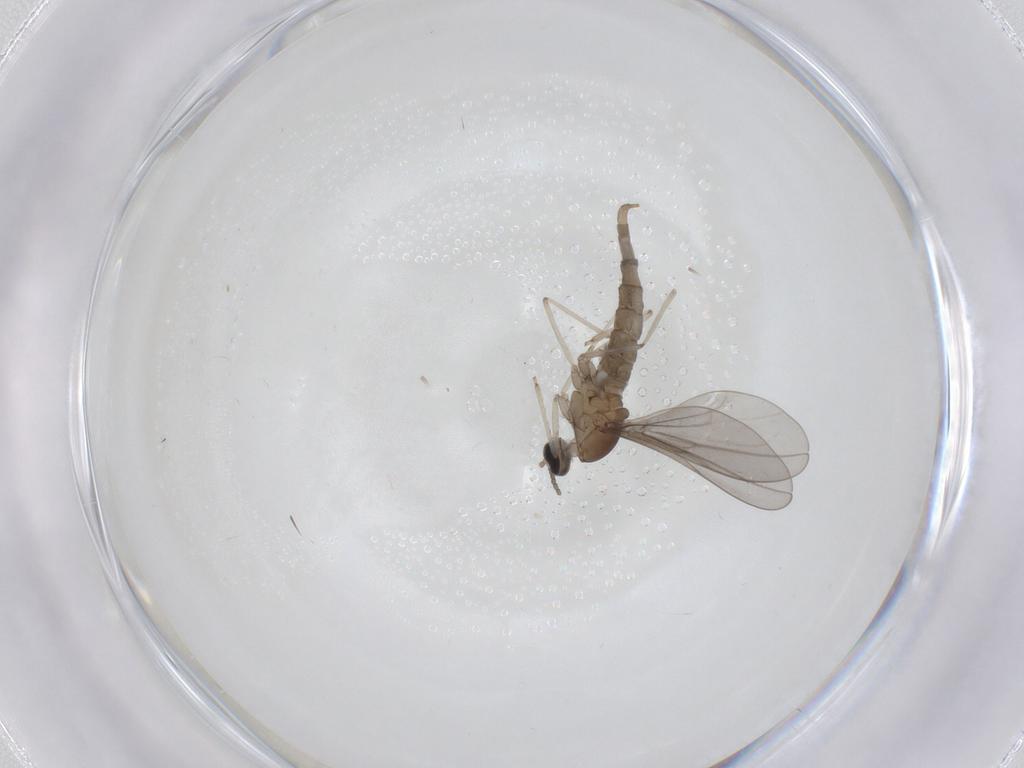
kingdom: Animalia
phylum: Arthropoda
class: Insecta
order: Diptera
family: Cecidomyiidae
